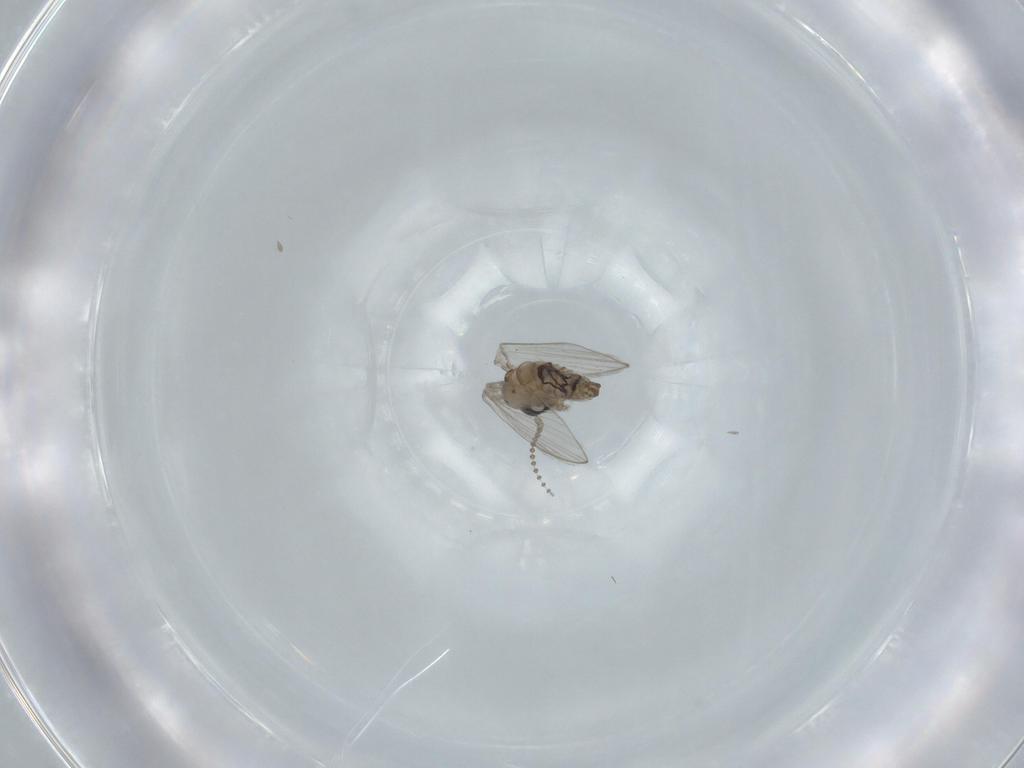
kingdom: Animalia
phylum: Arthropoda
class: Insecta
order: Diptera
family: Psychodidae
